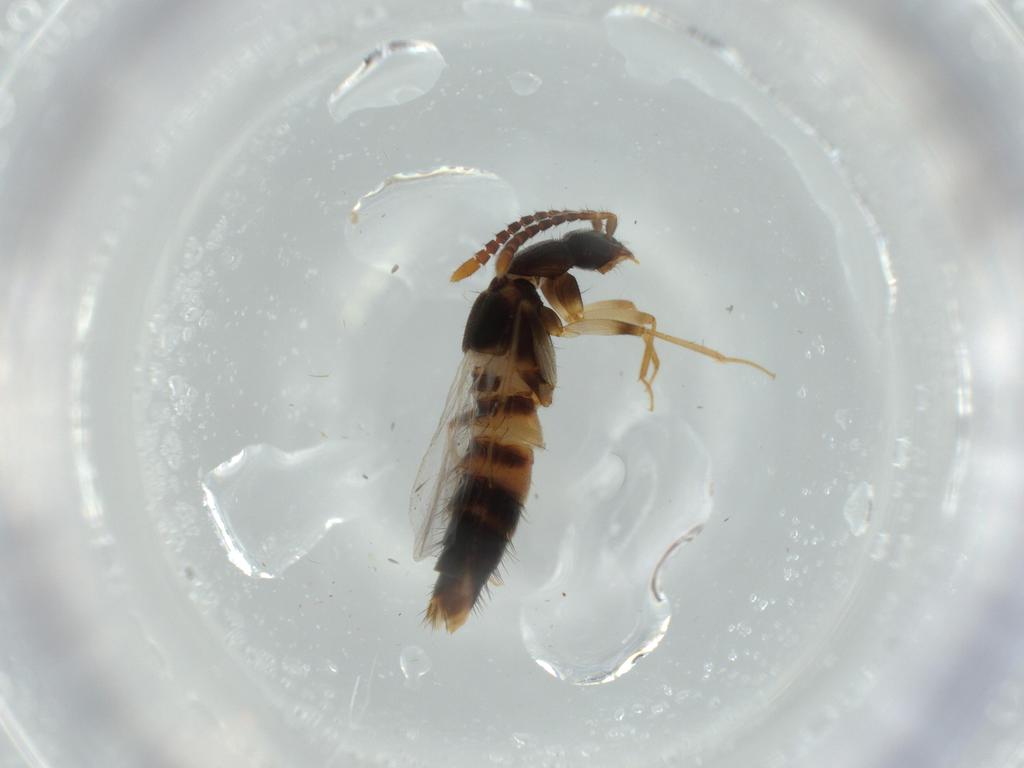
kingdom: Animalia
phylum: Arthropoda
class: Insecta
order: Coleoptera
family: Staphylinidae
